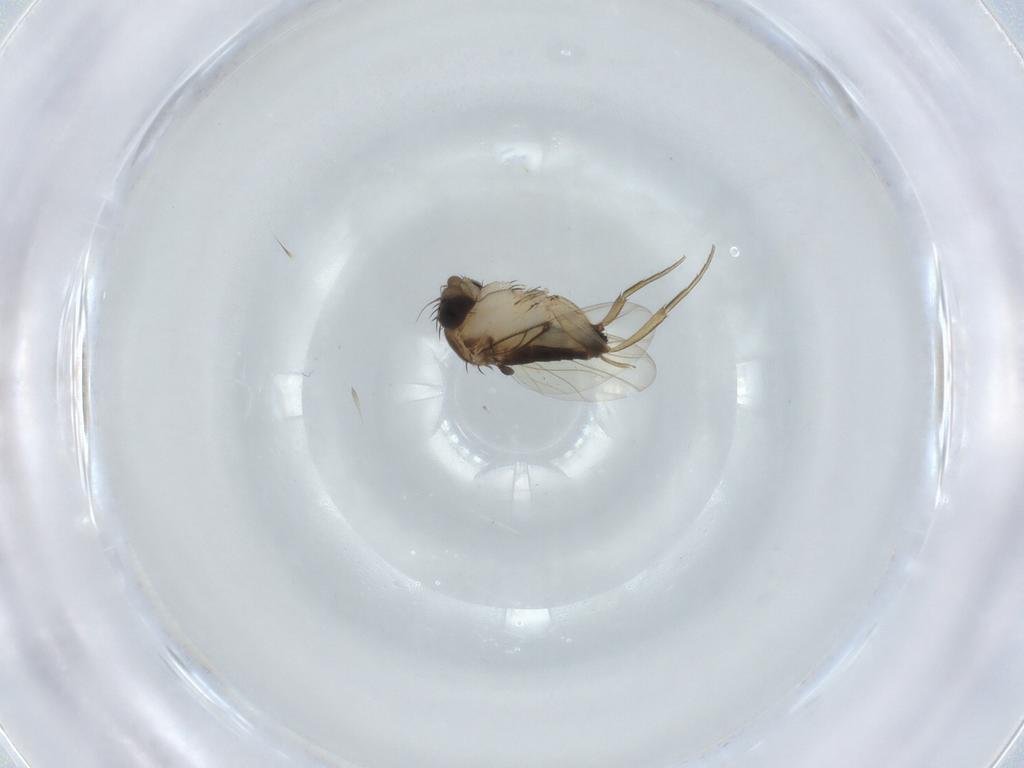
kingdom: Animalia
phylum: Arthropoda
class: Insecta
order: Diptera
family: Phoridae
